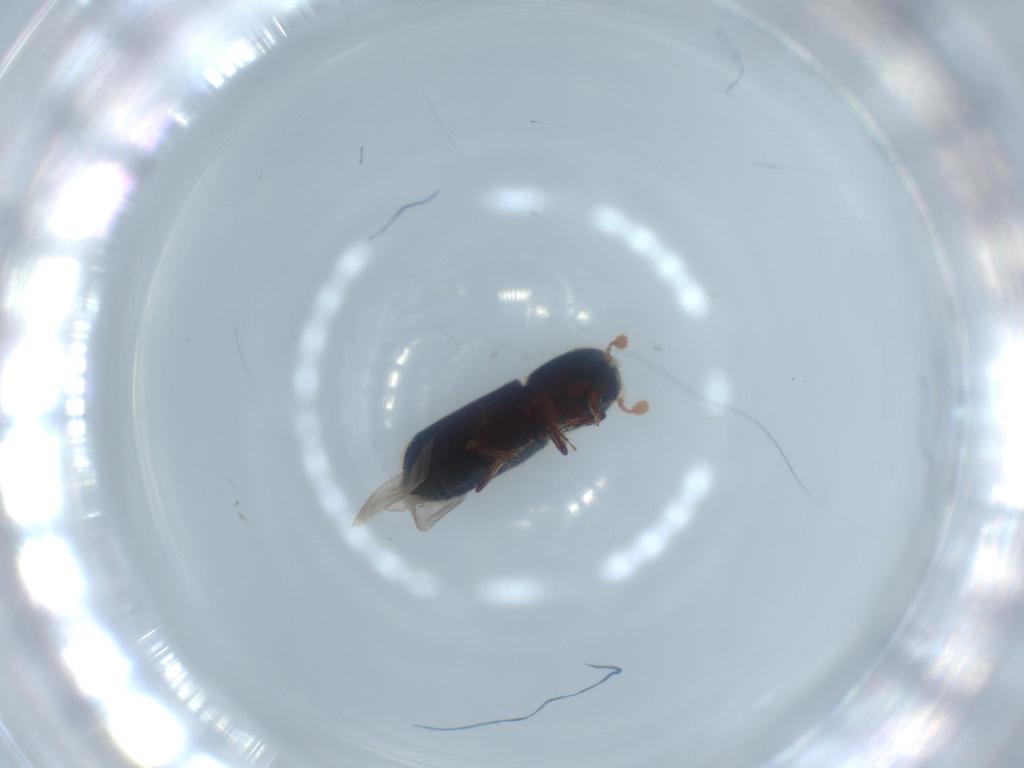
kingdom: Animalia
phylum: Arthropoda
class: Insecta
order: Coleoptera
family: Curculionidae
